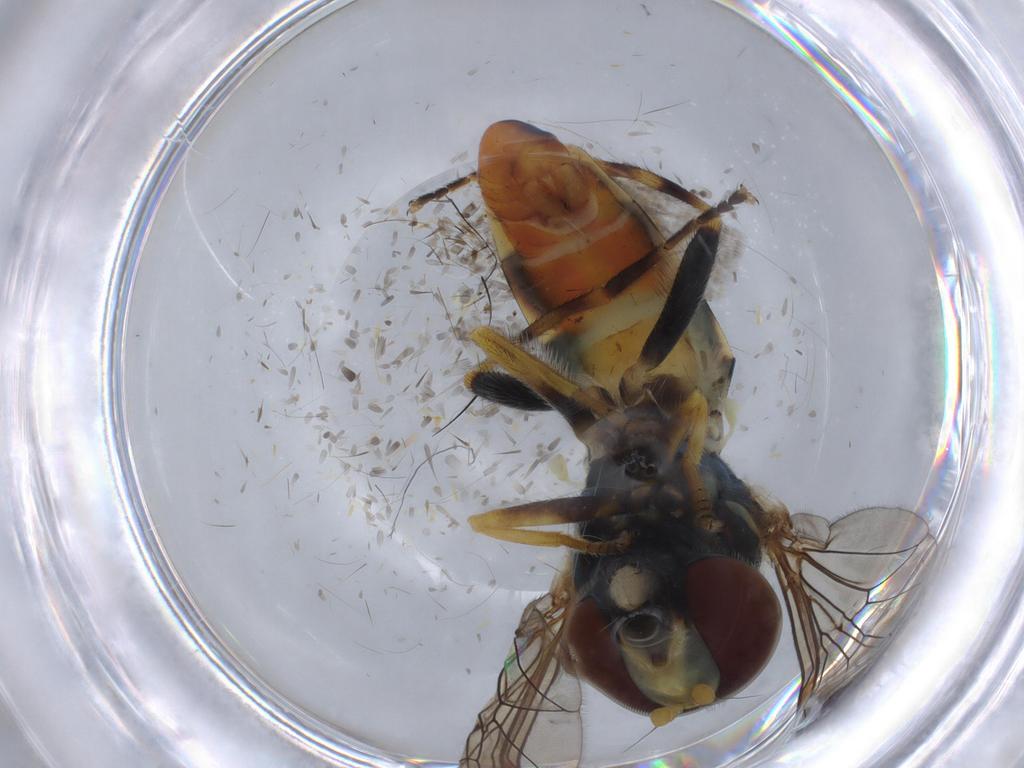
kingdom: Animalia
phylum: Arthropoda
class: Insecta
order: Diptera
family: Syrphidae
